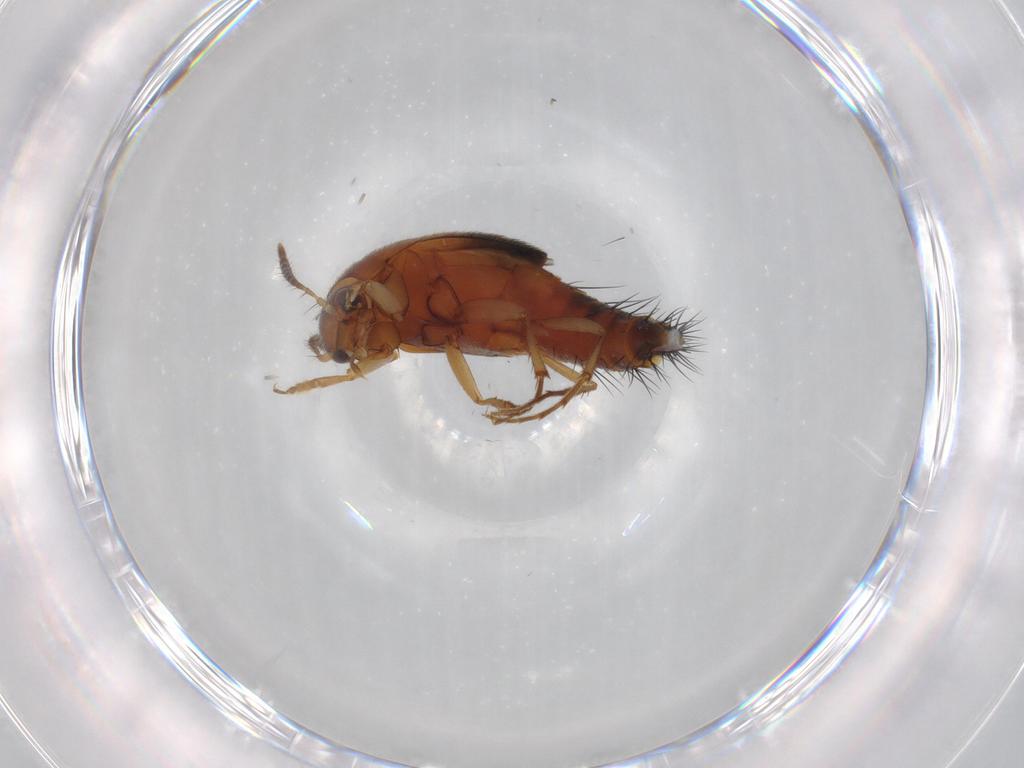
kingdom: Animalia
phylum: Arthropoda
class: Insecta
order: Coleoptera
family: Staphylinidae
